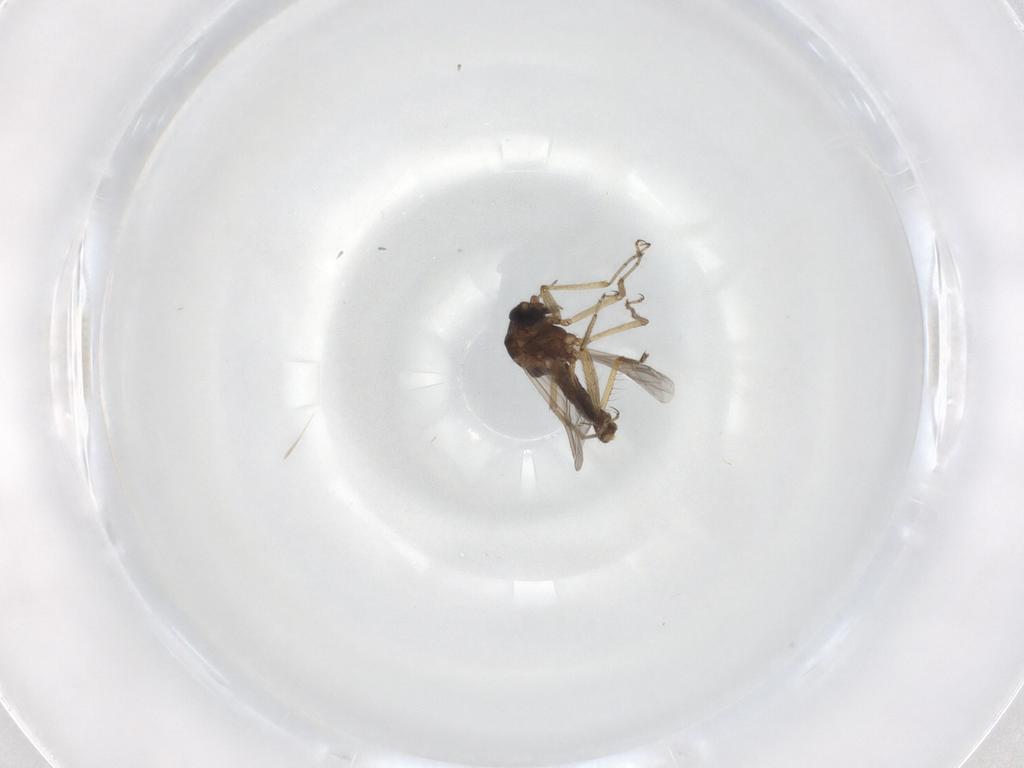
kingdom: Animalia
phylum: Arthropoda
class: Insecta
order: Diptera
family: Ceratopogonidae
